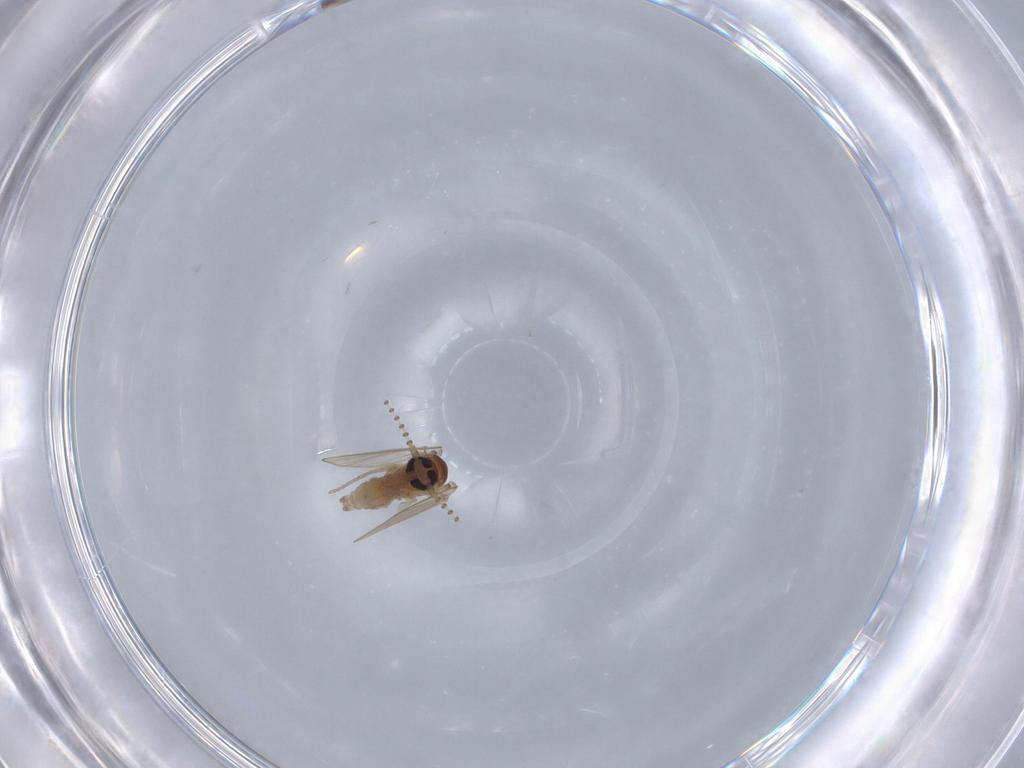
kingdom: Animalia
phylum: Arthropoda
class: Insecta
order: Diptera
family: Psychodidae
